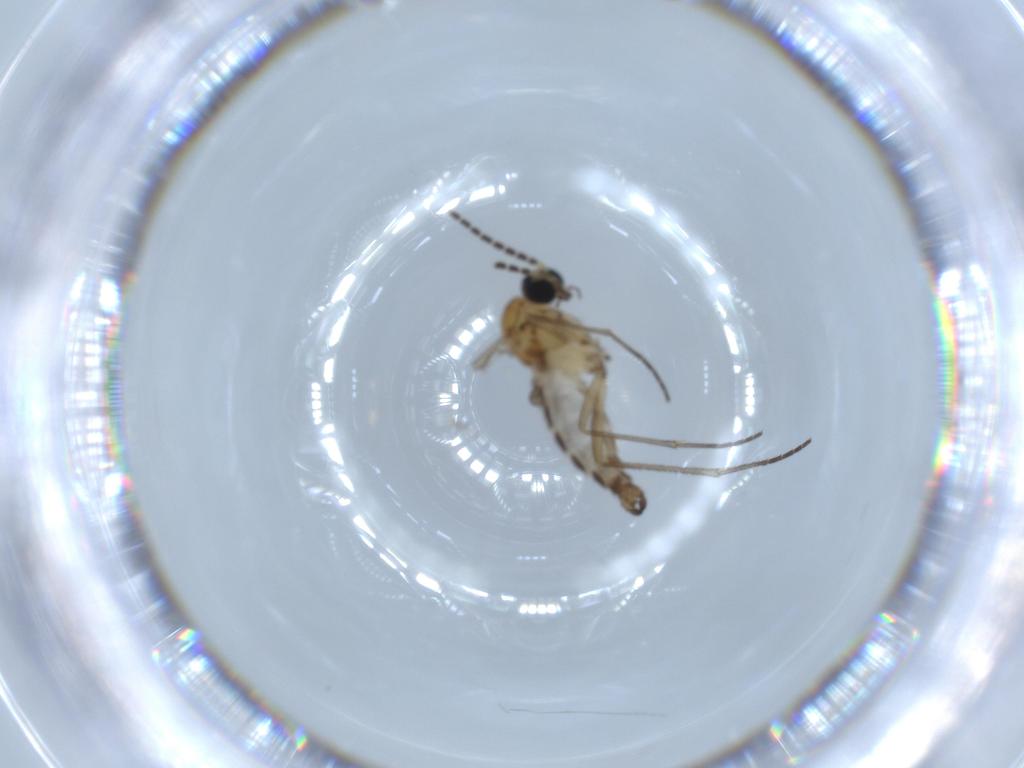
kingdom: Animalia
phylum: Arthropoda
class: Insecta
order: Diptera
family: Sciaridae
